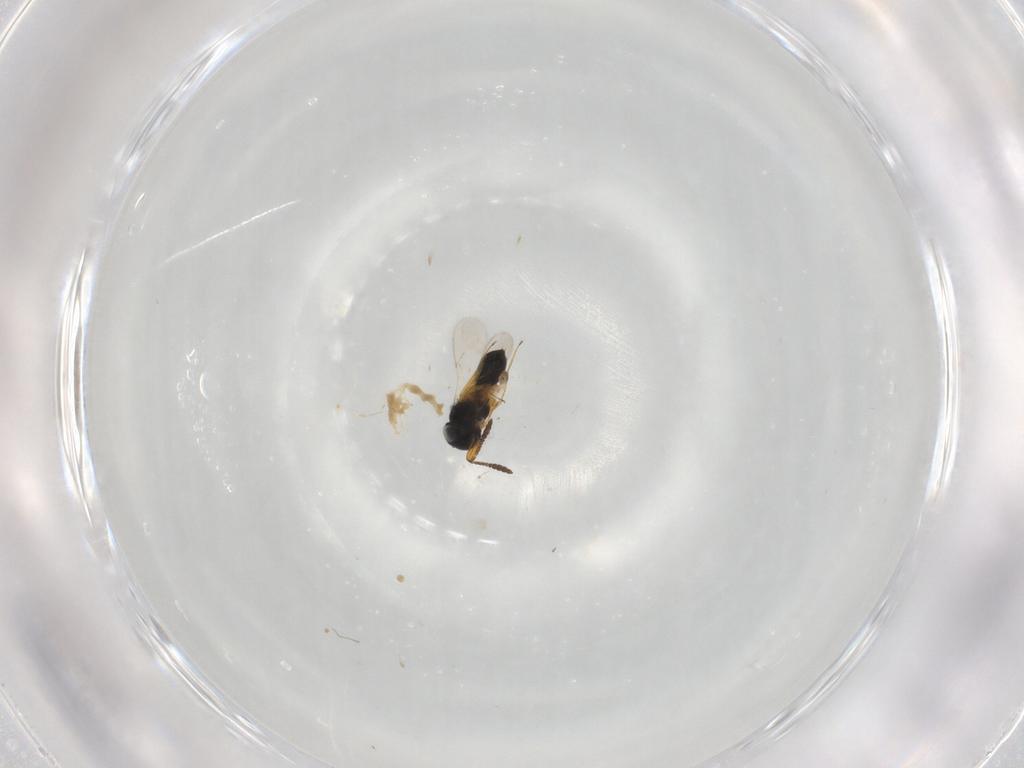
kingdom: Animalia
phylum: Arthropoda
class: Insecta
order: Hymenoptera
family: Scelionidae
